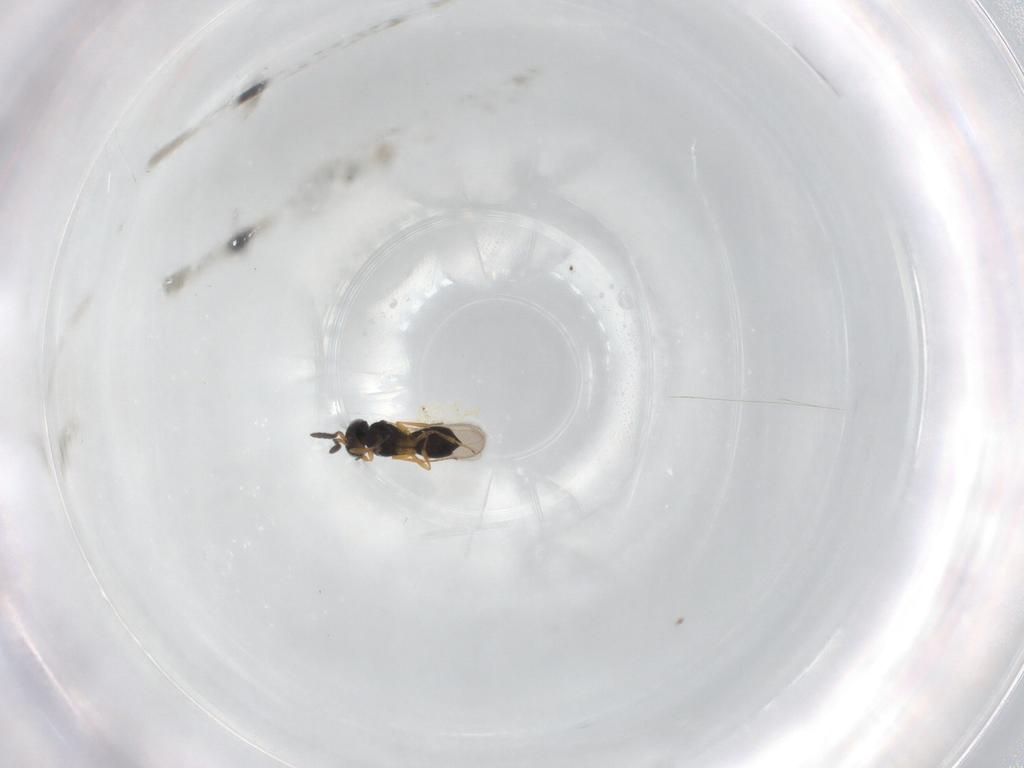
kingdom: Animalia
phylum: Arthropoda
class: Insecta
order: Hymenoptera
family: Scelionidae
